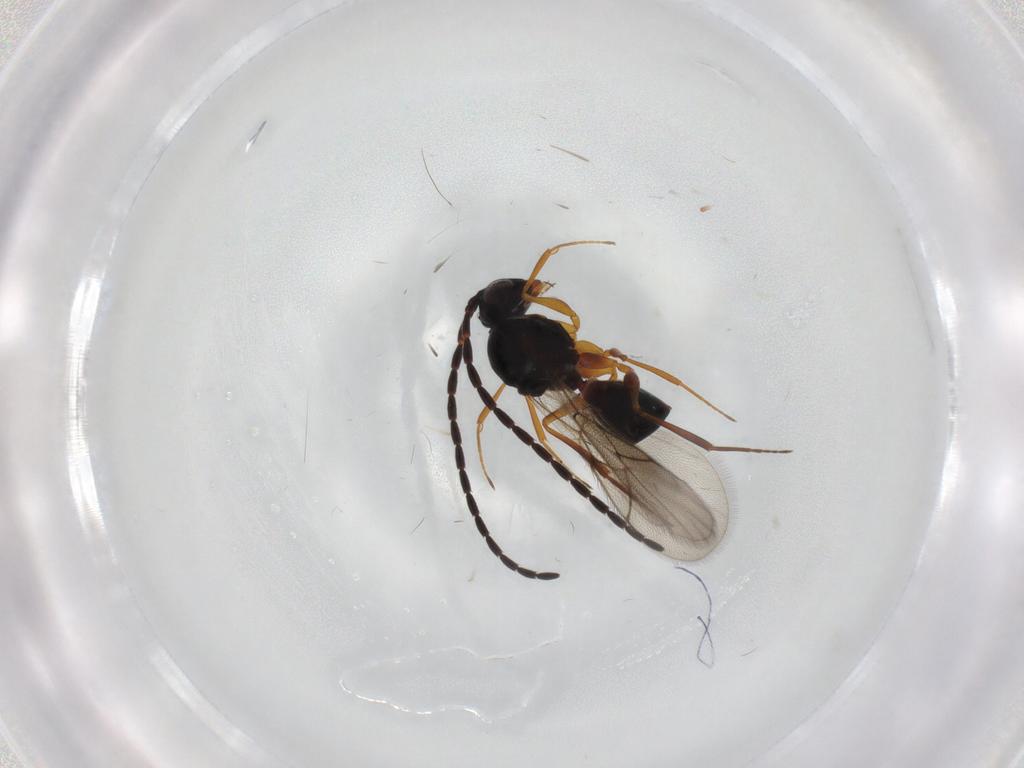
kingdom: Animalia
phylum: Arthropoda
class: Insecta
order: Hymenoptera
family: Figitidae
